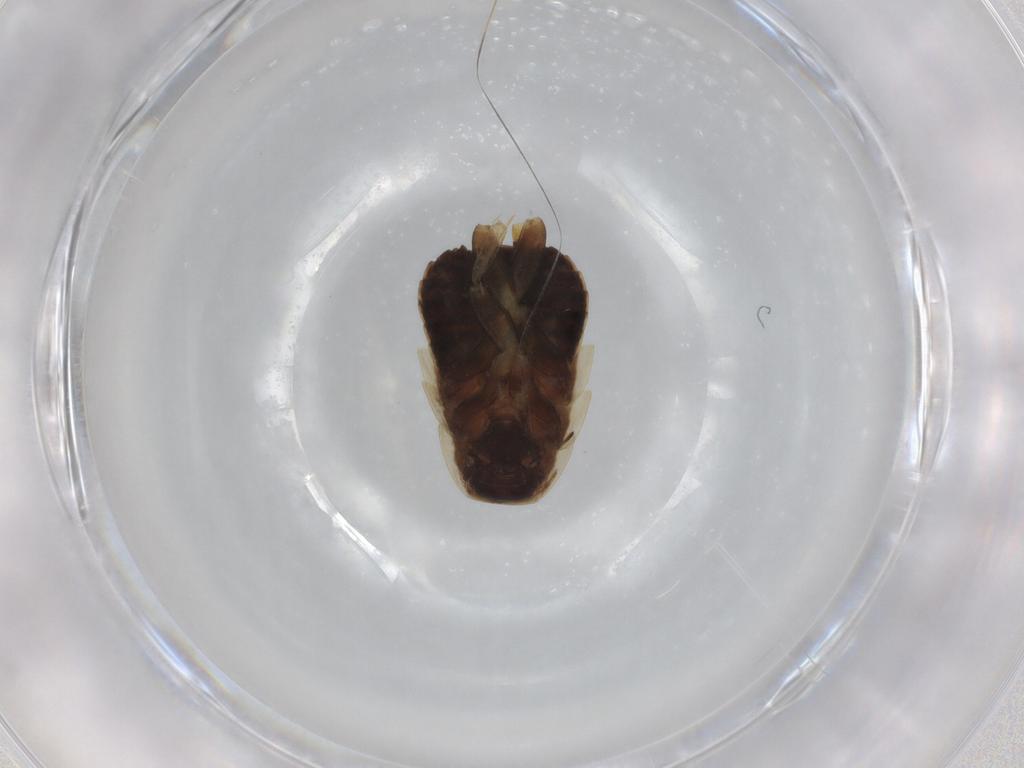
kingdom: Animalia
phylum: Arthropoda
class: Insecta
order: Blattodea
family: Ectobiidae
